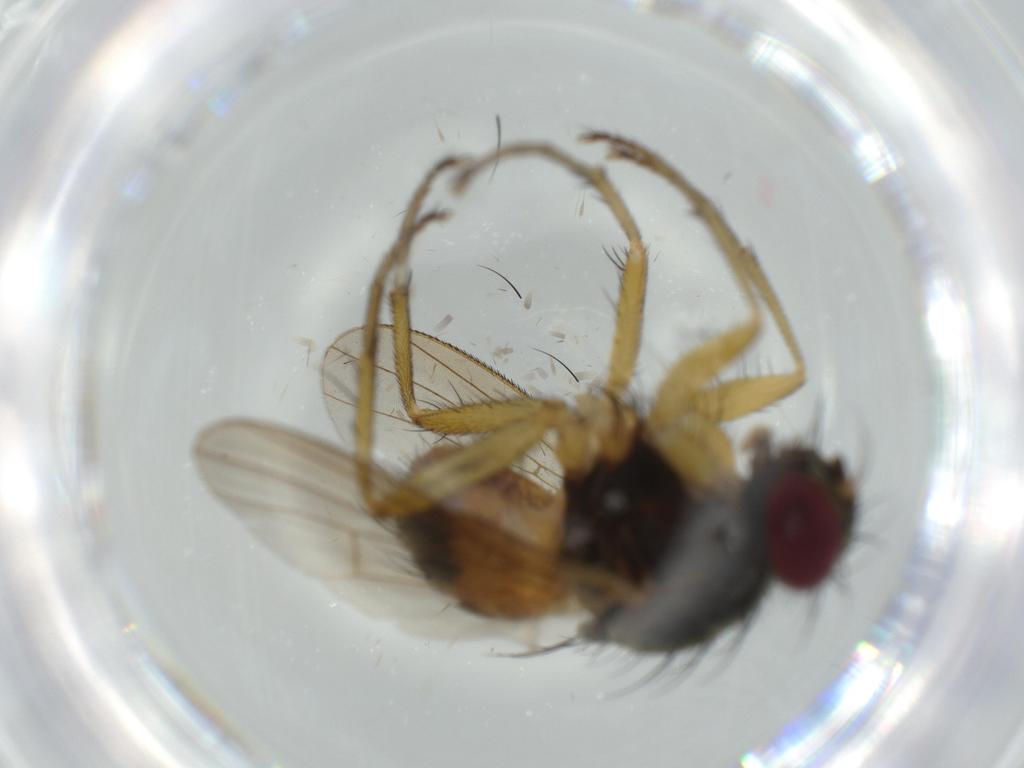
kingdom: Animalia
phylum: Arthropoda
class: Insecta
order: Diptera
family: Muscidae
